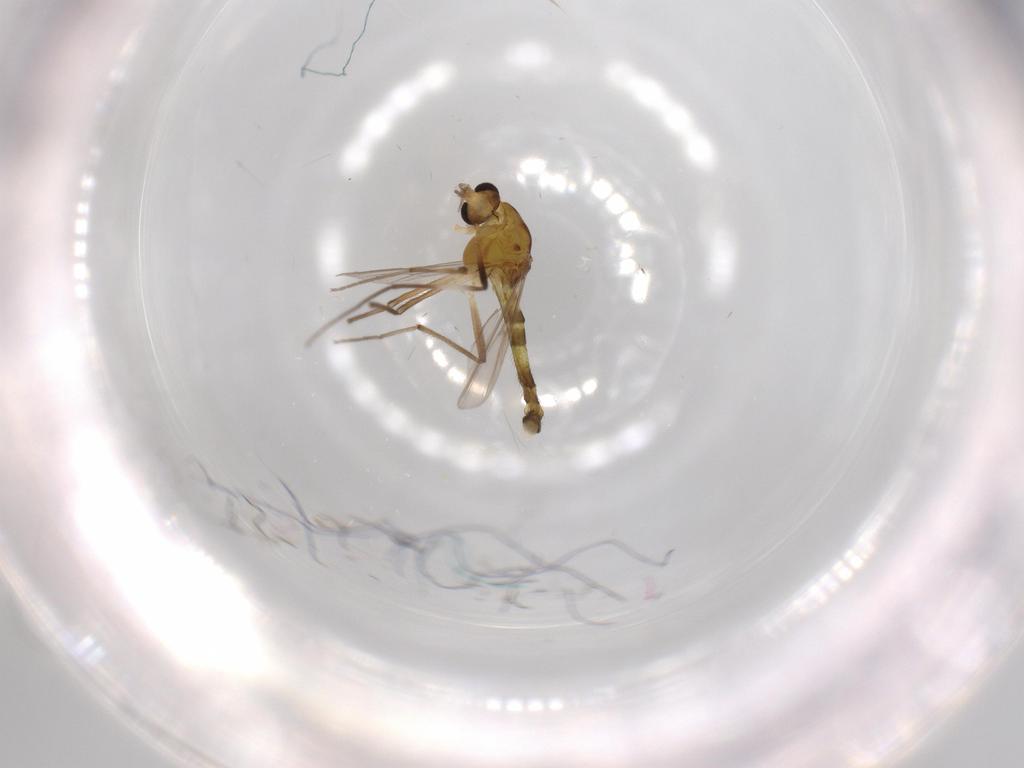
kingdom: Animalia
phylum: Arthropoda
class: Insecta
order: Diptera
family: Chironomidae
